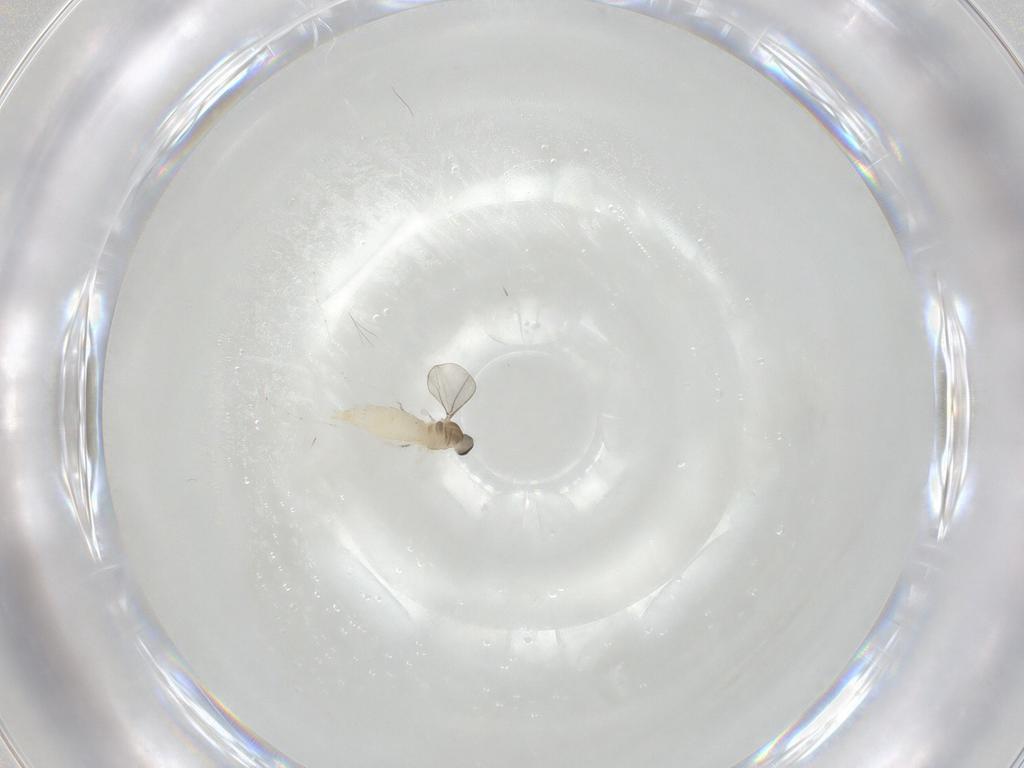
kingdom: Animalia
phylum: Arthropoda
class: Insecta
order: Diptera
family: Cecidomyiidae
